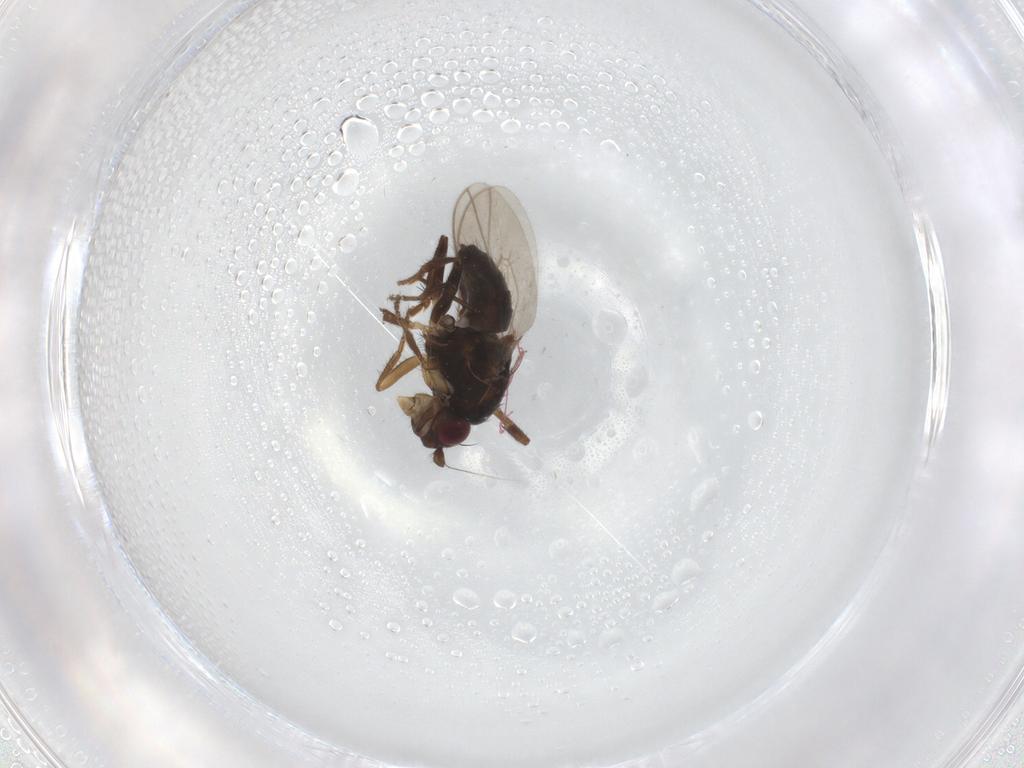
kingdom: Animalia
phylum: Arthropoda
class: Insecta
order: Diptera
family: Sphaeroceridae
